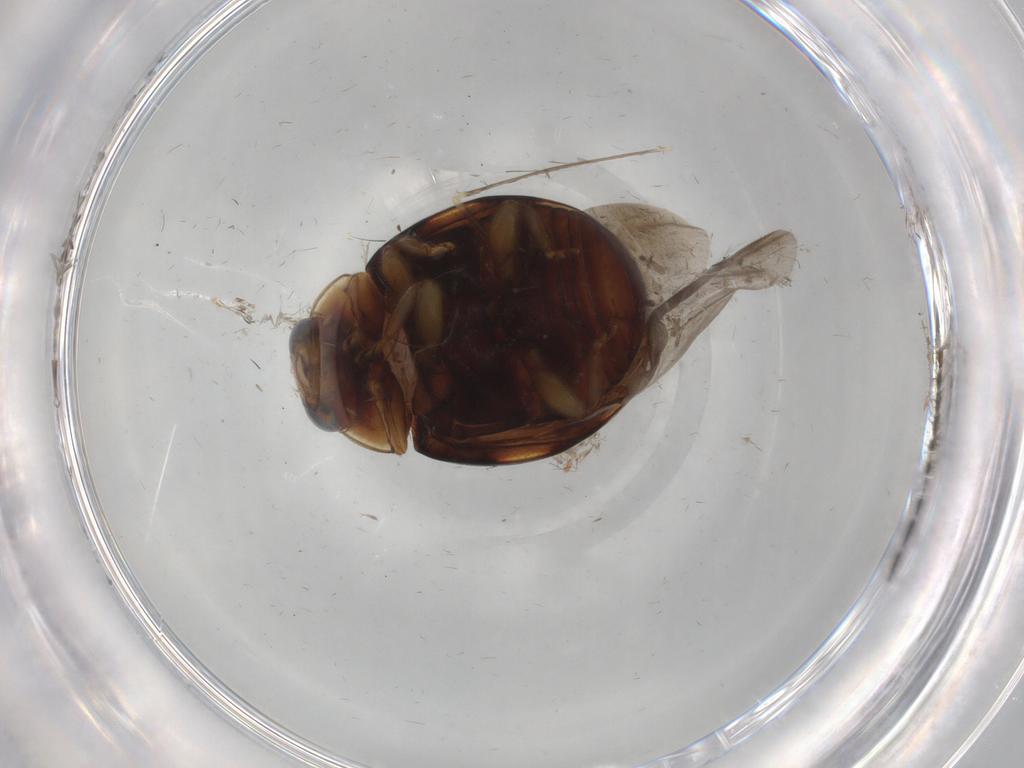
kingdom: Animalia
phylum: Arthropoda
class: Insecta
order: Coleoptera
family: Coccinellidae
